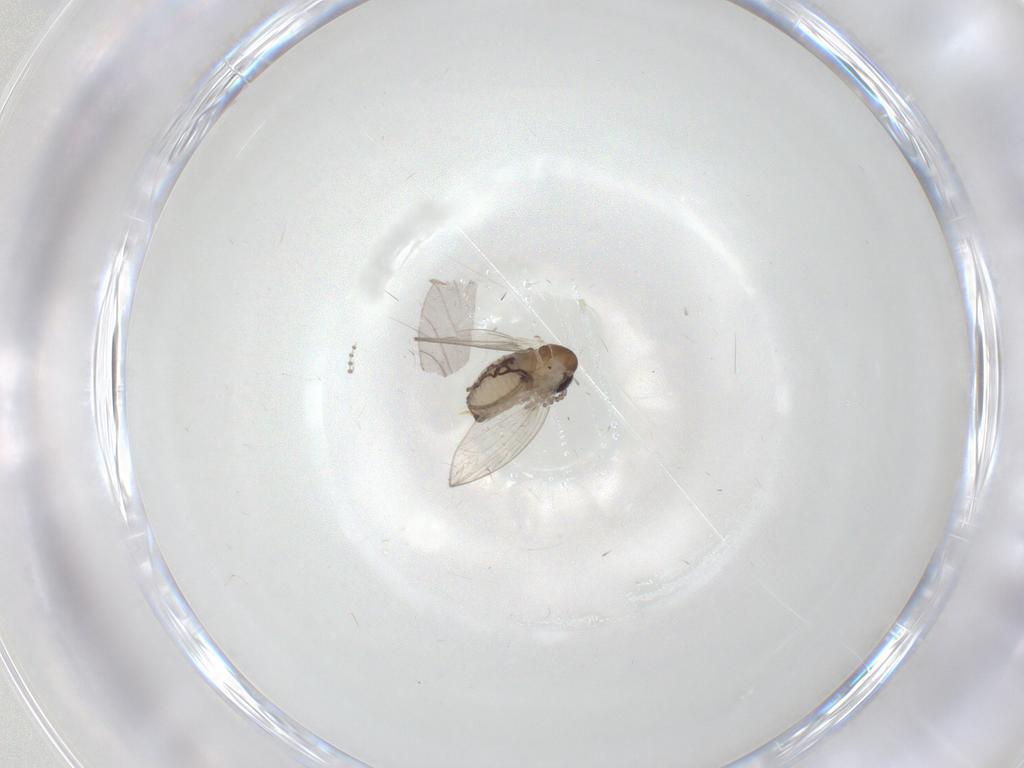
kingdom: Animalia
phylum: Arthropoda
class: Insecta
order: Diptera
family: Psychodidae
